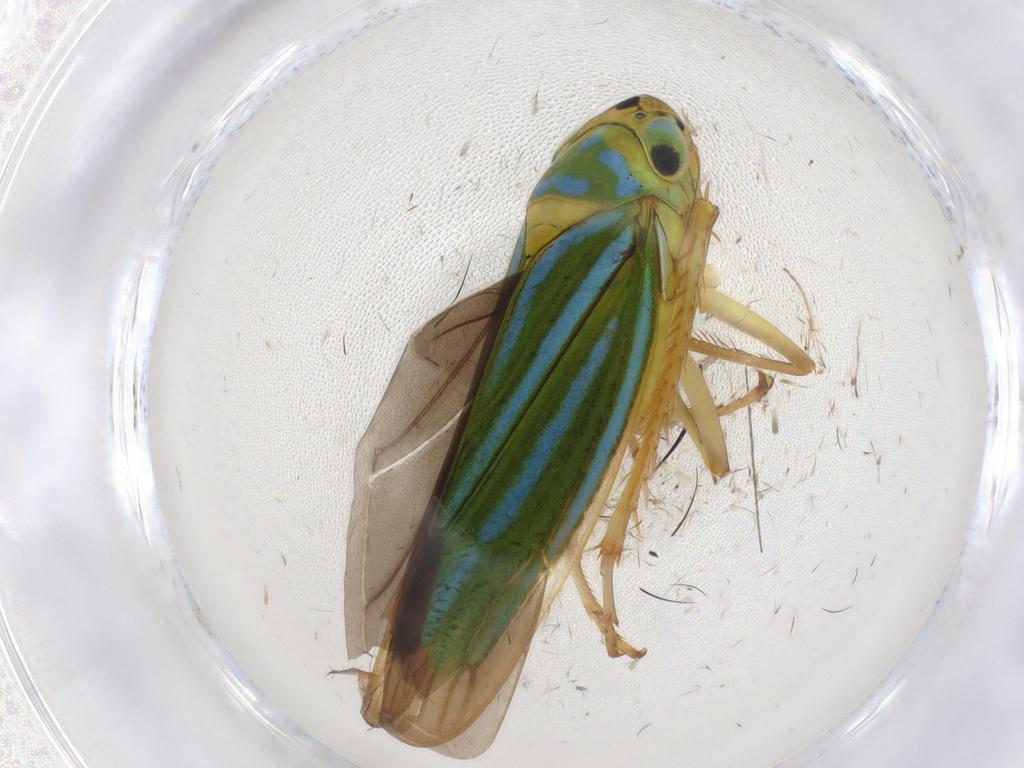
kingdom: Animalia
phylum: Arthropoda
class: Insecta
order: Hemiptera
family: Cicadellidae
